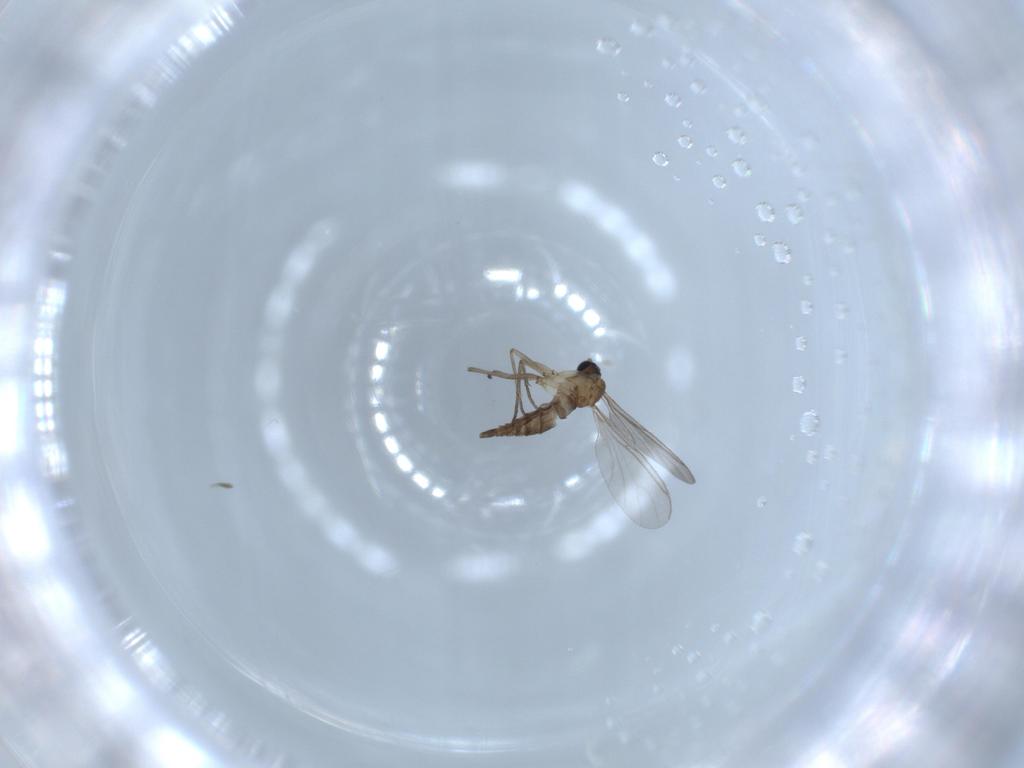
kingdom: Animalia
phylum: Arthropoda
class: Insecta
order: Diptera
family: Sciaridae
